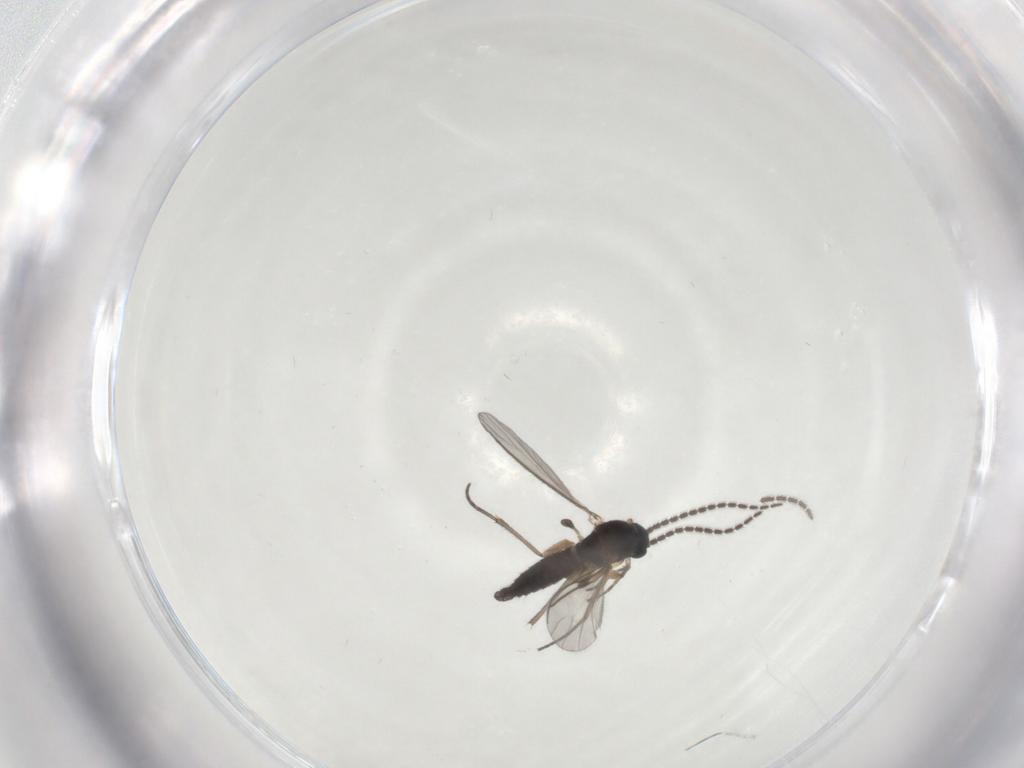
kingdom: Animalia
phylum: Arthropoda
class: Insecta
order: Diptera
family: Sciaridae
